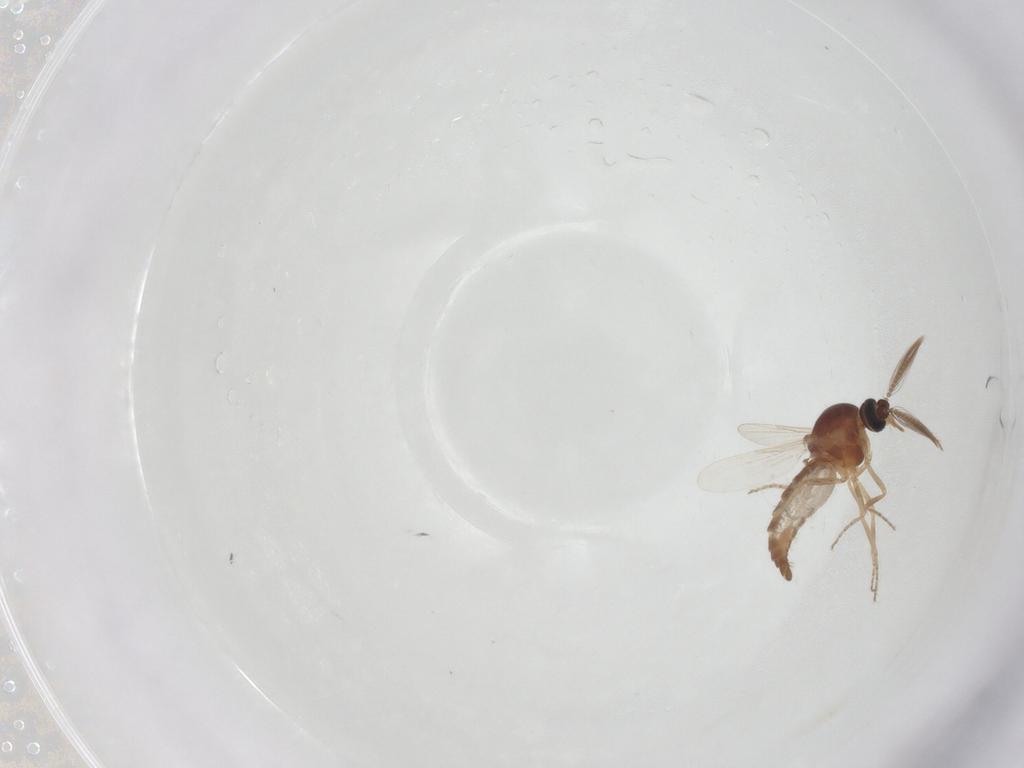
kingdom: Animalia
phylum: Arthropoda
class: Insecta
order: Diptera
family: Ceratopogonidae
